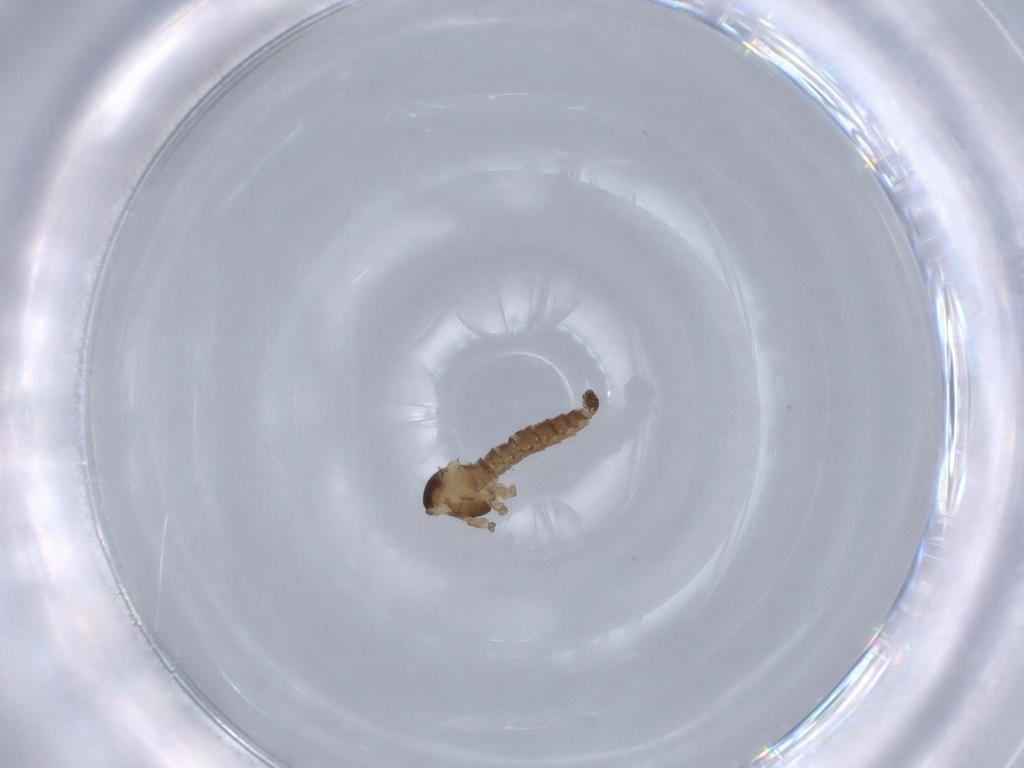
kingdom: Animalia
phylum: Arthropoda
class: Insecta
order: Diptera
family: Cecidomyiidae
